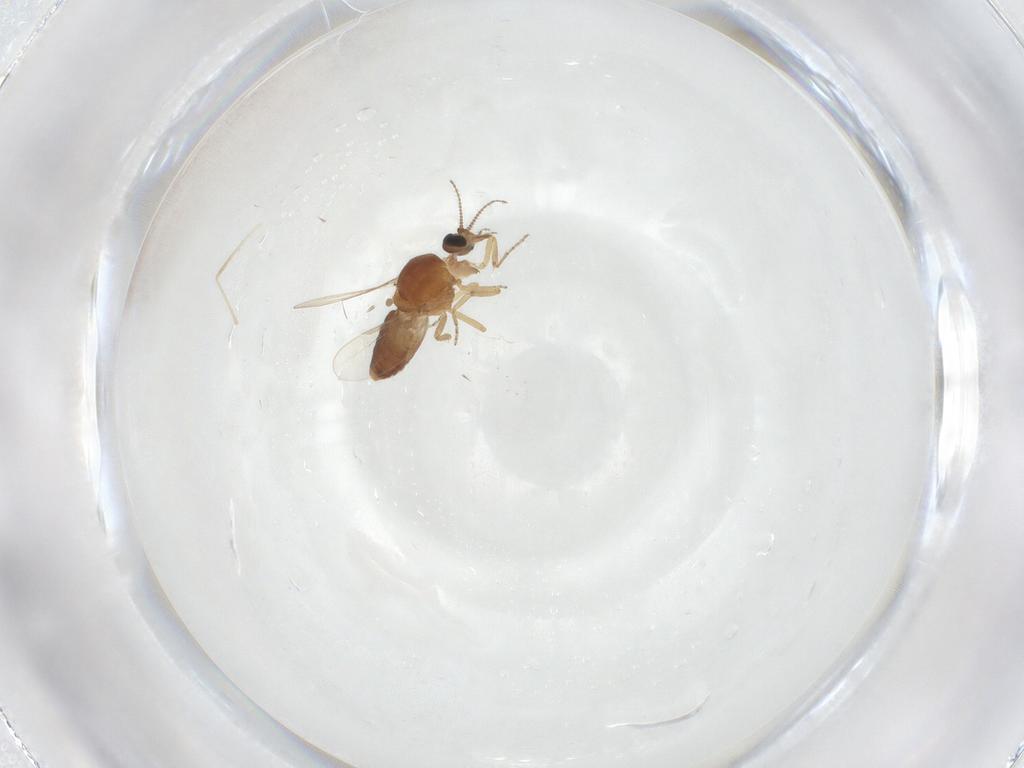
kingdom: Animalia
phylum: Arthropoda
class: Insecta
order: Diptera
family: Ceratopogonidae
